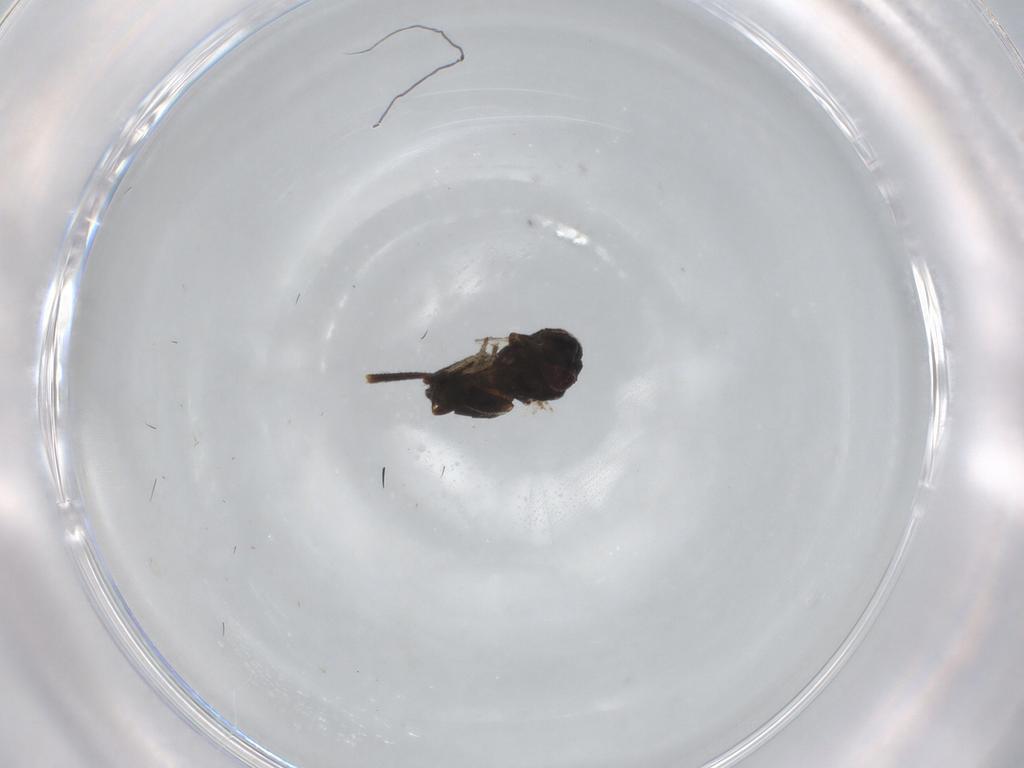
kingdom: Animalia
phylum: Arthropoda
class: Insecta
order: Diptera
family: Milichiidae
